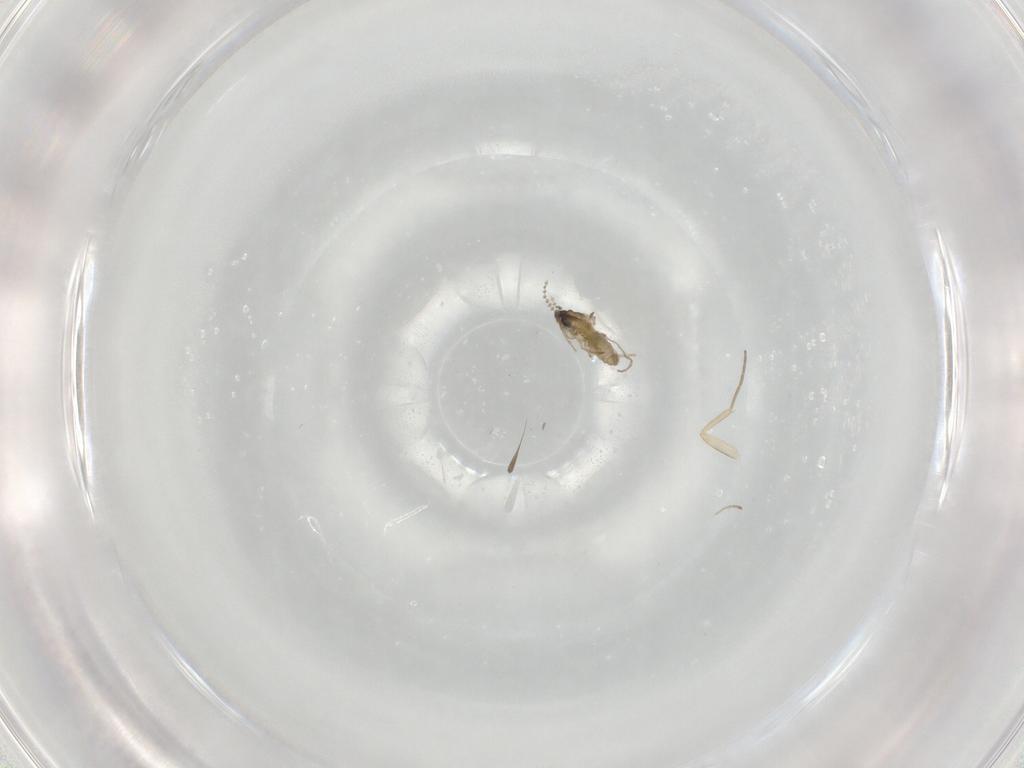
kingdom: Animalia
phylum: Arthropoda
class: Insecta
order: Diptera
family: Cecidomyiidae
